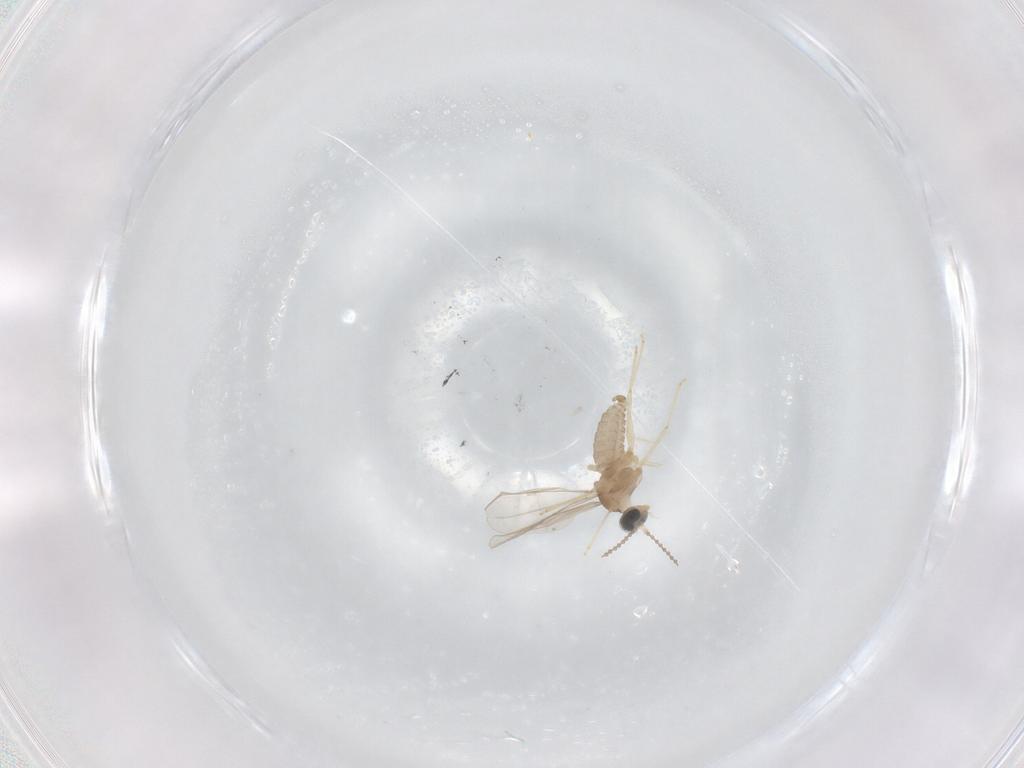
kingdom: Animalia
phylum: Arthropoda
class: Insecta
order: Diptera
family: Cecidomyiidae
